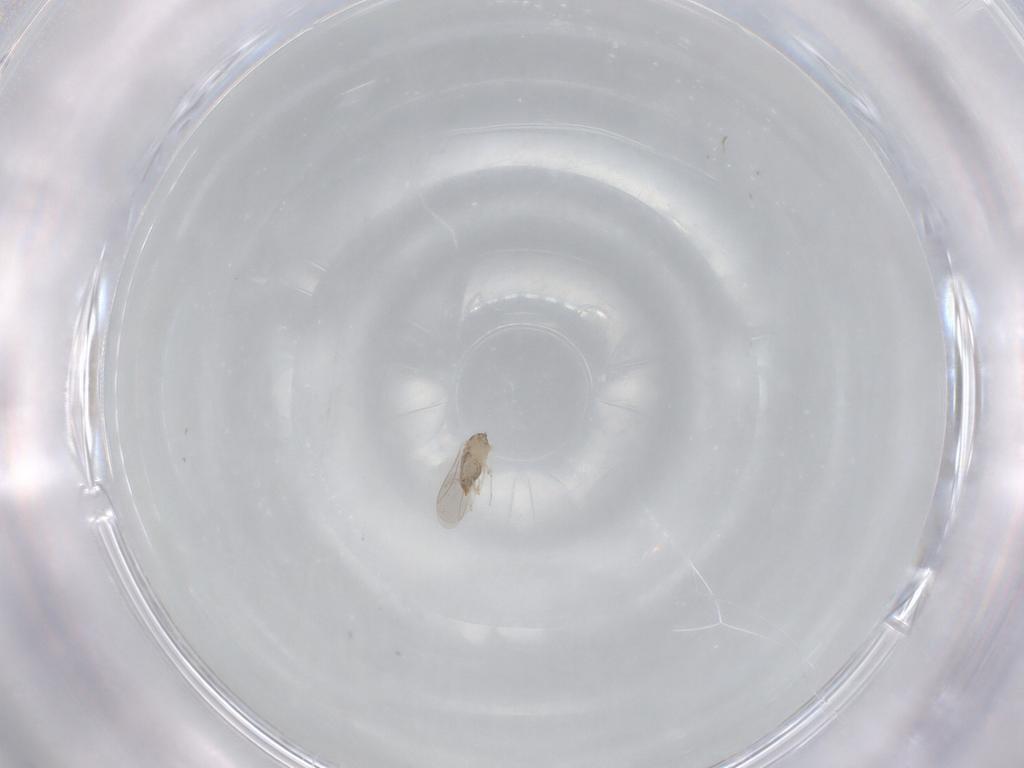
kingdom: Animalia
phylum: Arthropoda
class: Insecta
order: Diptera
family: Cecidomyiidae
